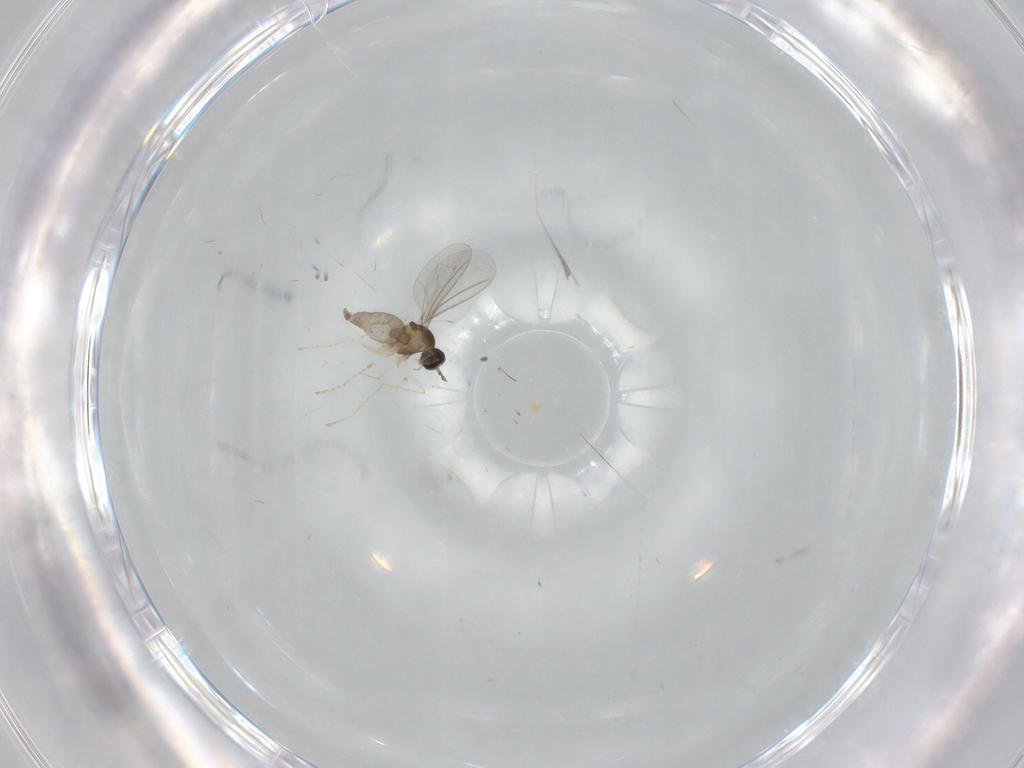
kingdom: Animalia
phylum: Arthropoda
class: Insecta
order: Diptera
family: Cecidomyiidae
